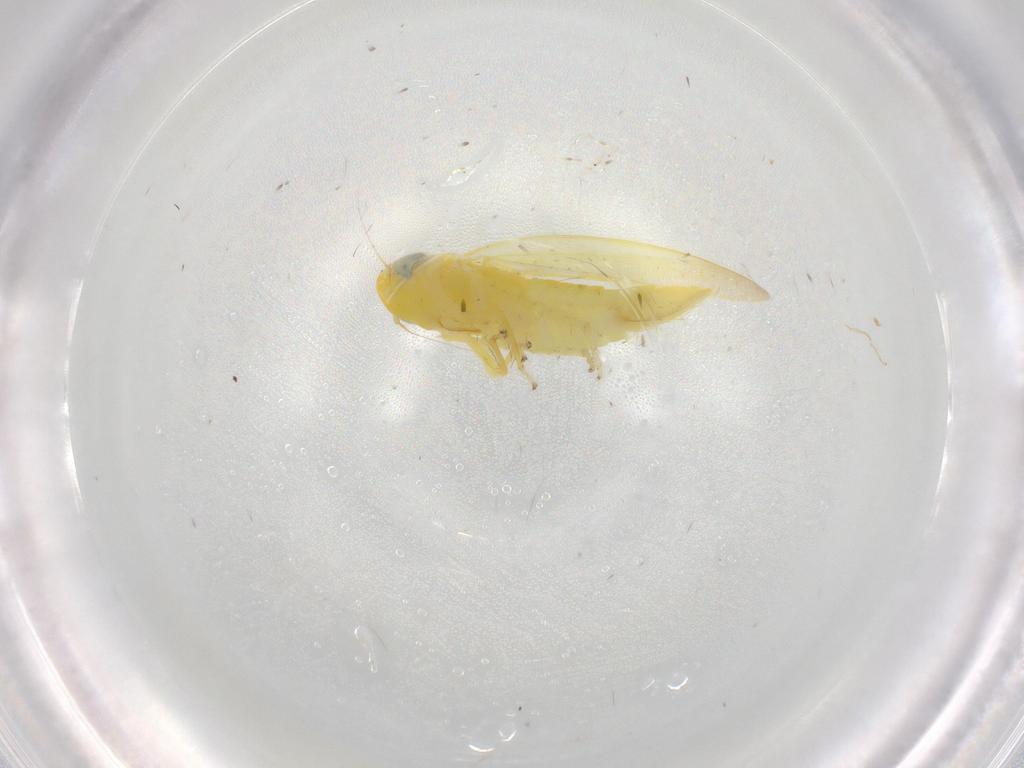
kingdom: Animalia
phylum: Arthropoda
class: Insecta
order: Hemiptera
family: Cicadellidae
